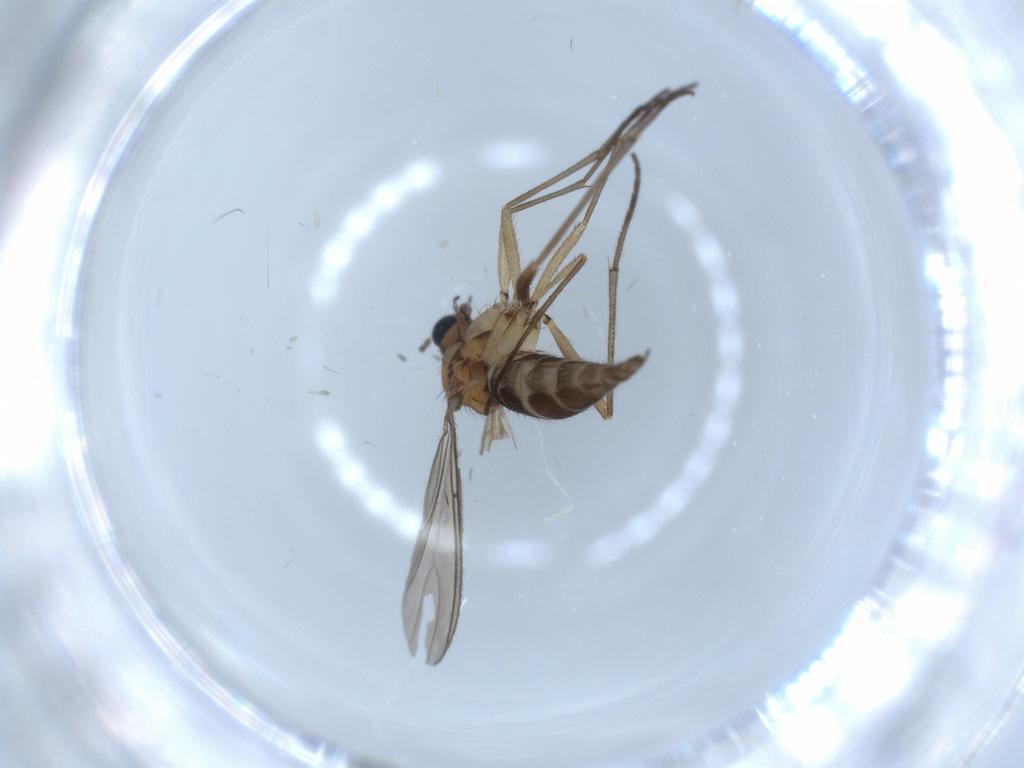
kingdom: Animalia
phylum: Arthropoda
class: Insecta
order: Diptera
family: Sciaridae
